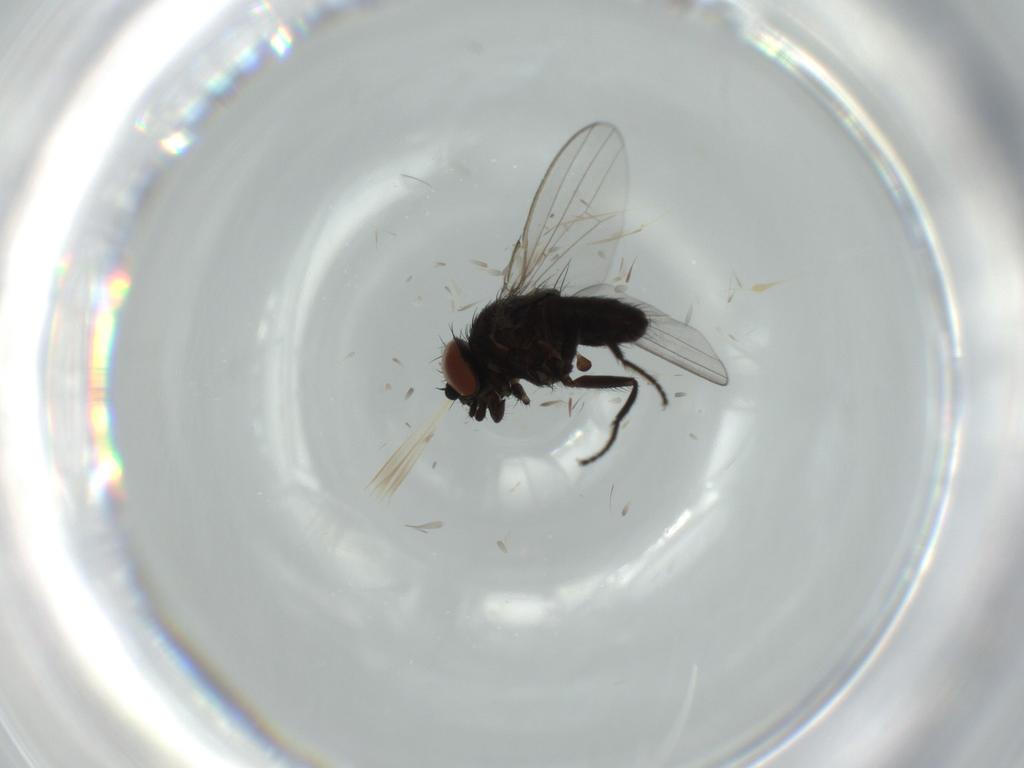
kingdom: Animalia
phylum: Arthropoda
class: Insecta
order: Diptera
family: Milichiidae
